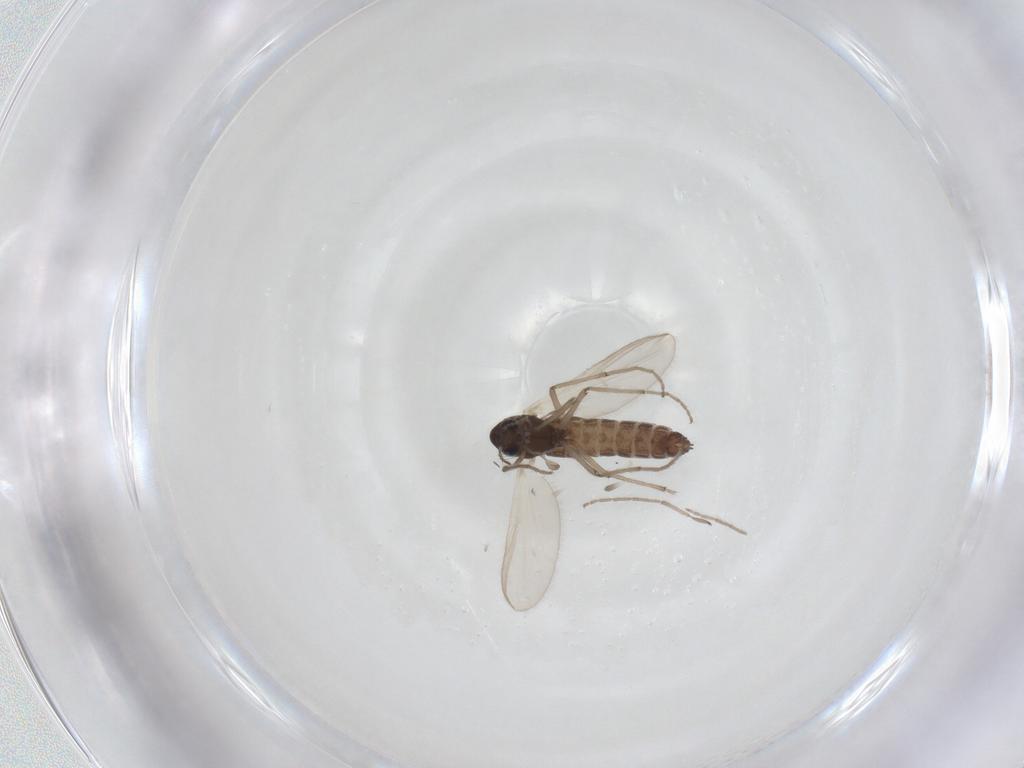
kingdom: Animalia
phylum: Arthropoda
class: Insecta
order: Diptera
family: Chironomidae
